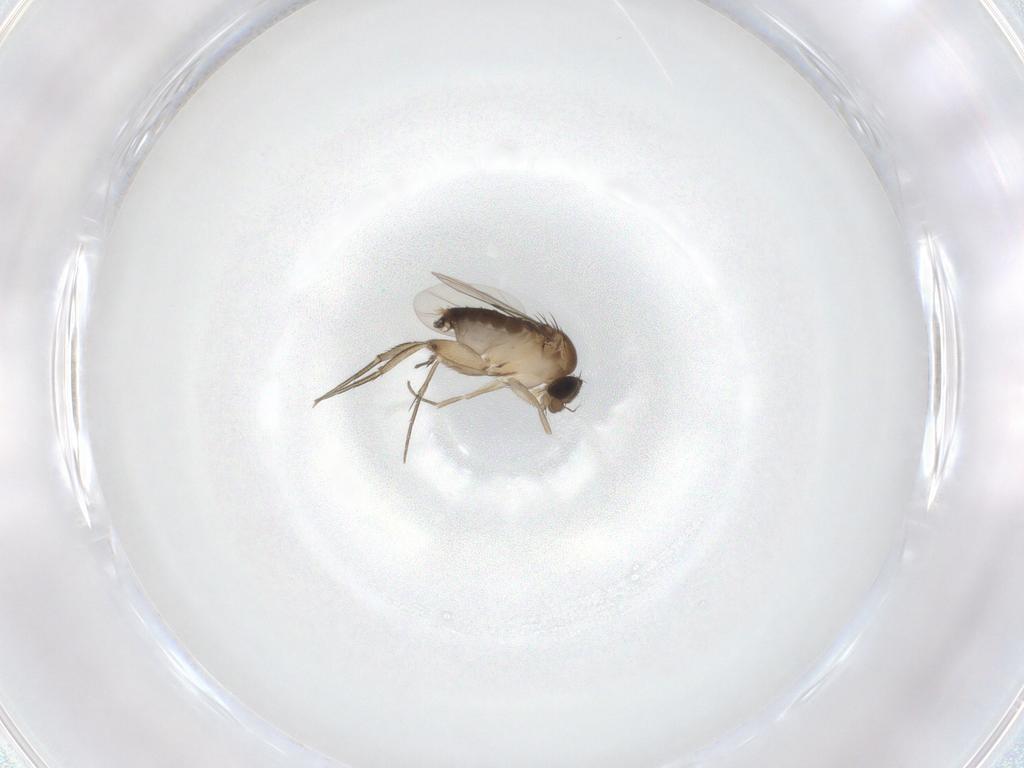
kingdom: Animalia
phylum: Arthropoda
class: Insecta
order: Diptera
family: Phoridae
